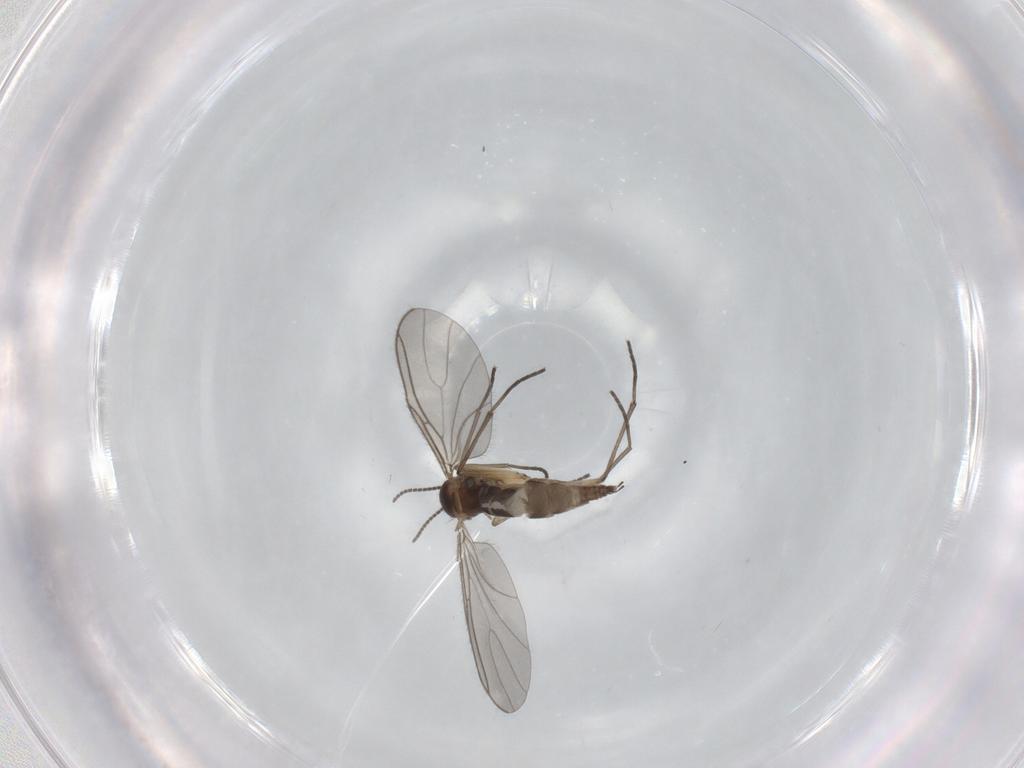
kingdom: Animalia
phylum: Arthropoda
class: Insecta
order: Diptera
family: Sciaridae
